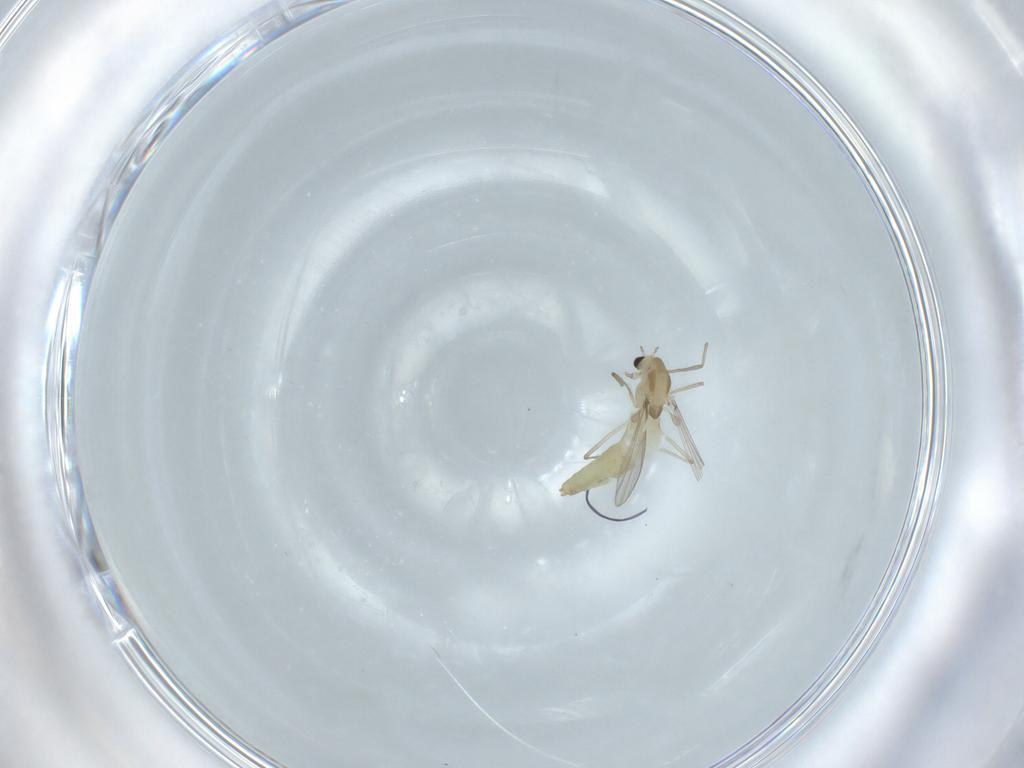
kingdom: Animalia
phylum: Arthropoda
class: Insecta
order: Diptera
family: Chironomidae
